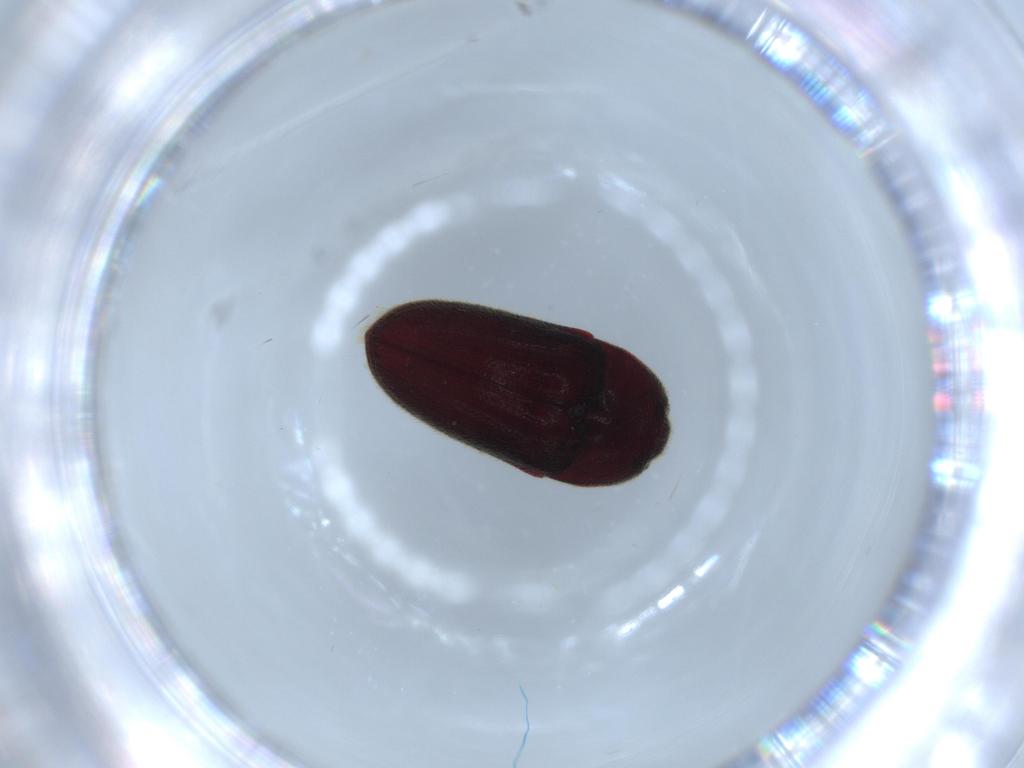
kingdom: Animalia
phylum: Arthropoda
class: Insecta
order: Coleoptera
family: Throscidae
